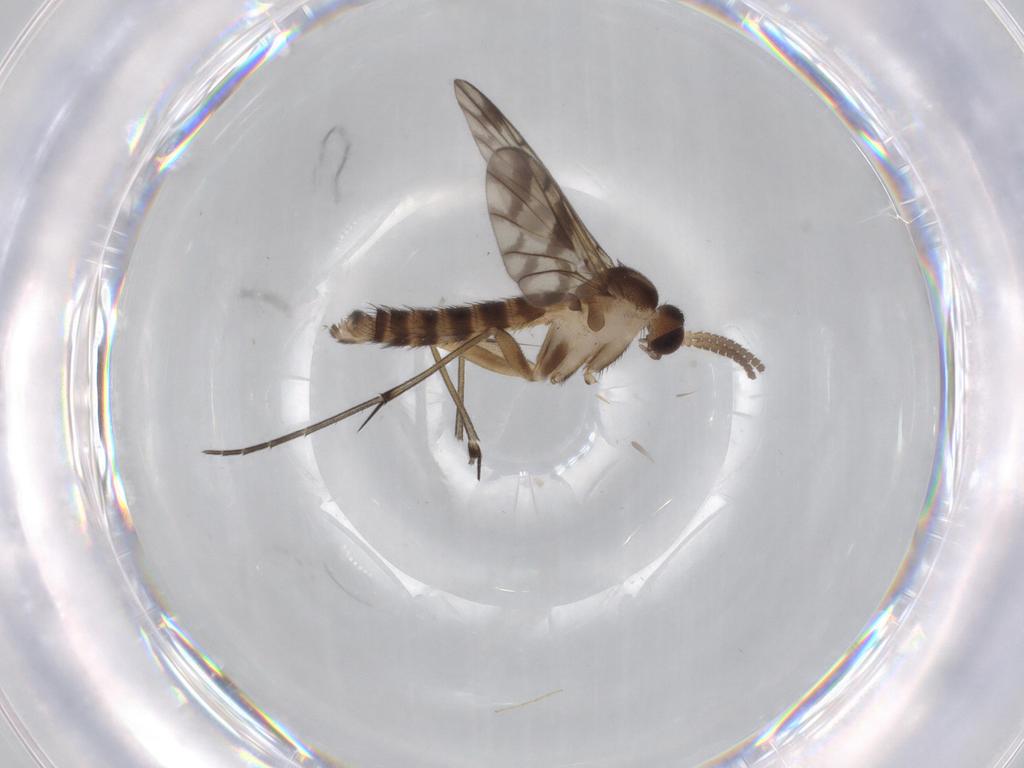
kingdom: Animalia
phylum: Arthropoda
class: Insecta
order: Diptera
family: Keroplatidae
